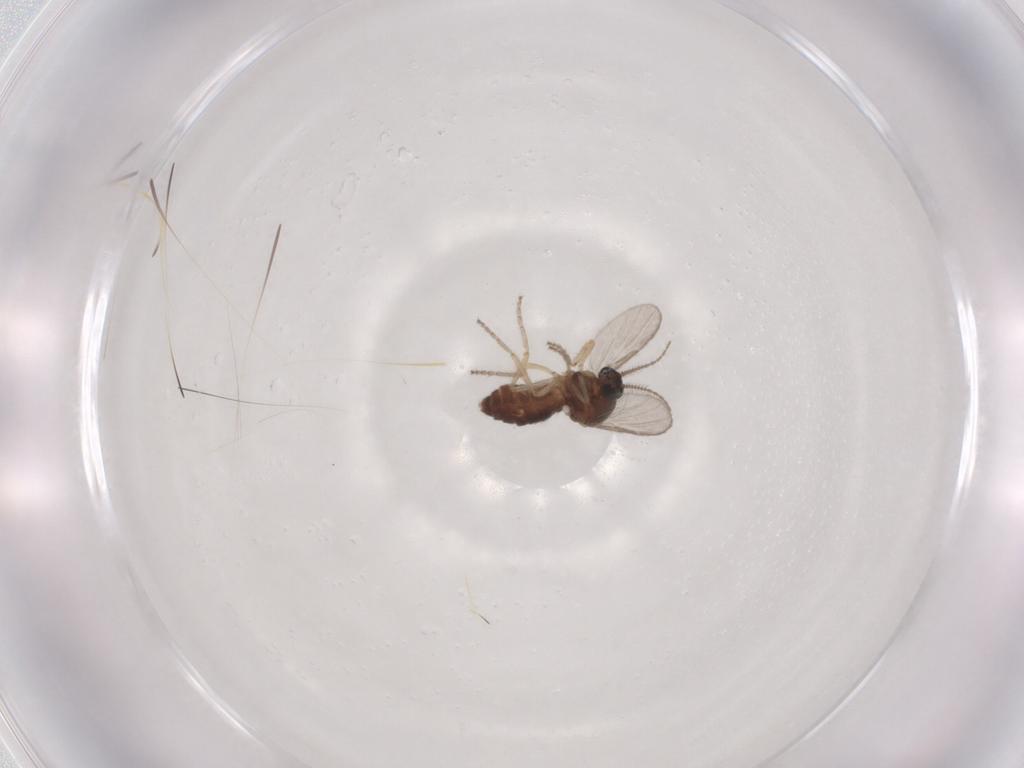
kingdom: Animalia
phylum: Arthropoda
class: Insecta
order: Diptera
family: Ceratopogonidae
